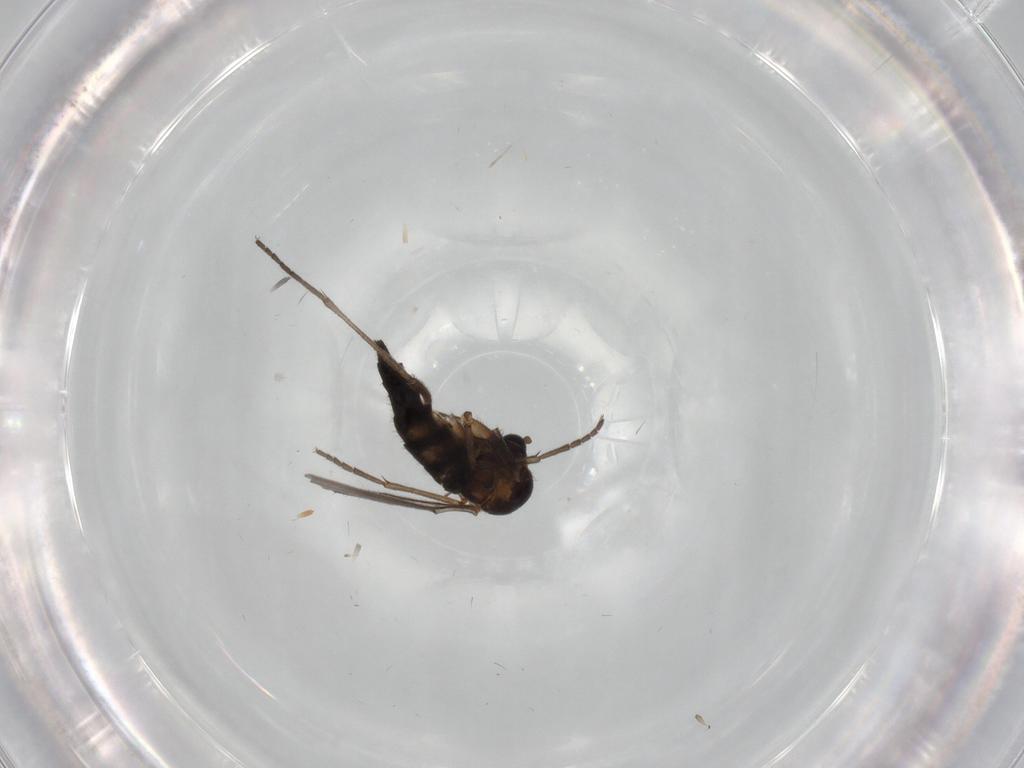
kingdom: Animalia
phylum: Arthropoda
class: Insecta
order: Diptera
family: Sciaridae
